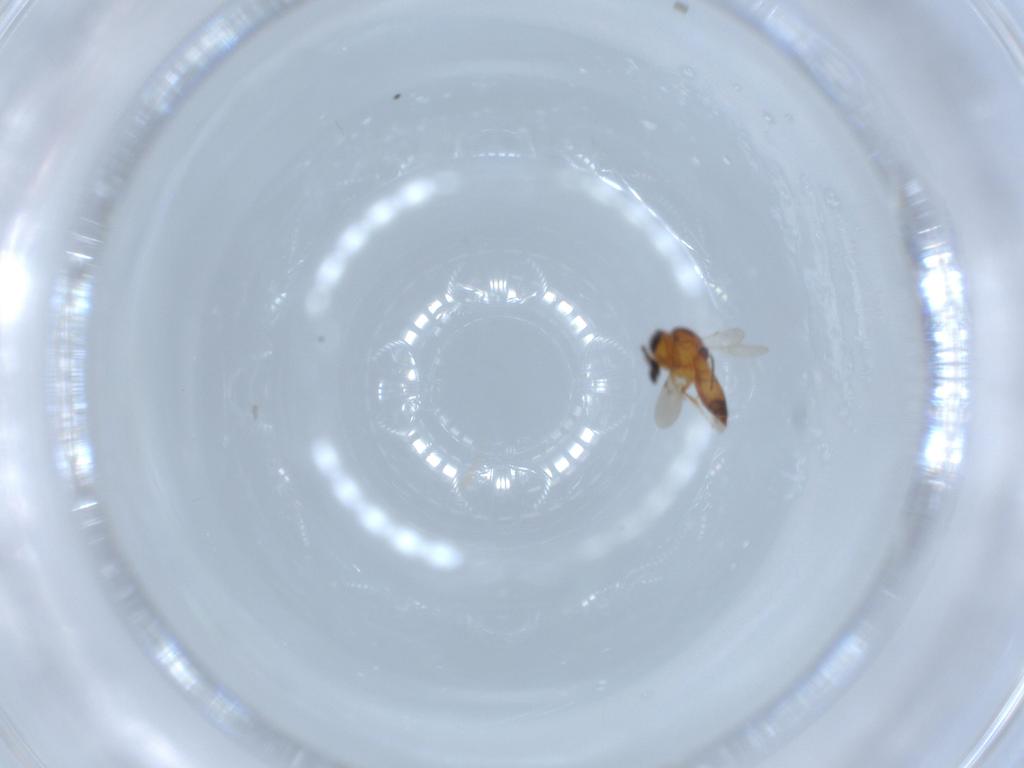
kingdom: Animalia
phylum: Arthropoda
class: Insecta
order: Hymenoptera
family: Scelionidae
